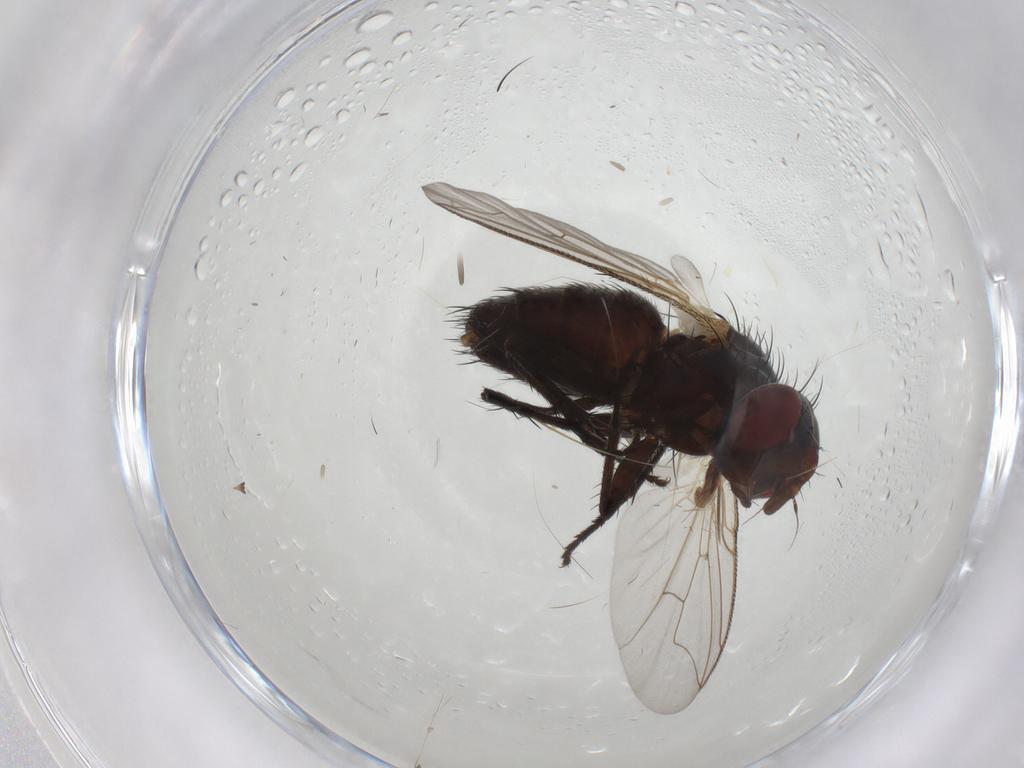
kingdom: Animalia
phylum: Arthropoda
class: Insecta
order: Diptera
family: Sarcophagidae
